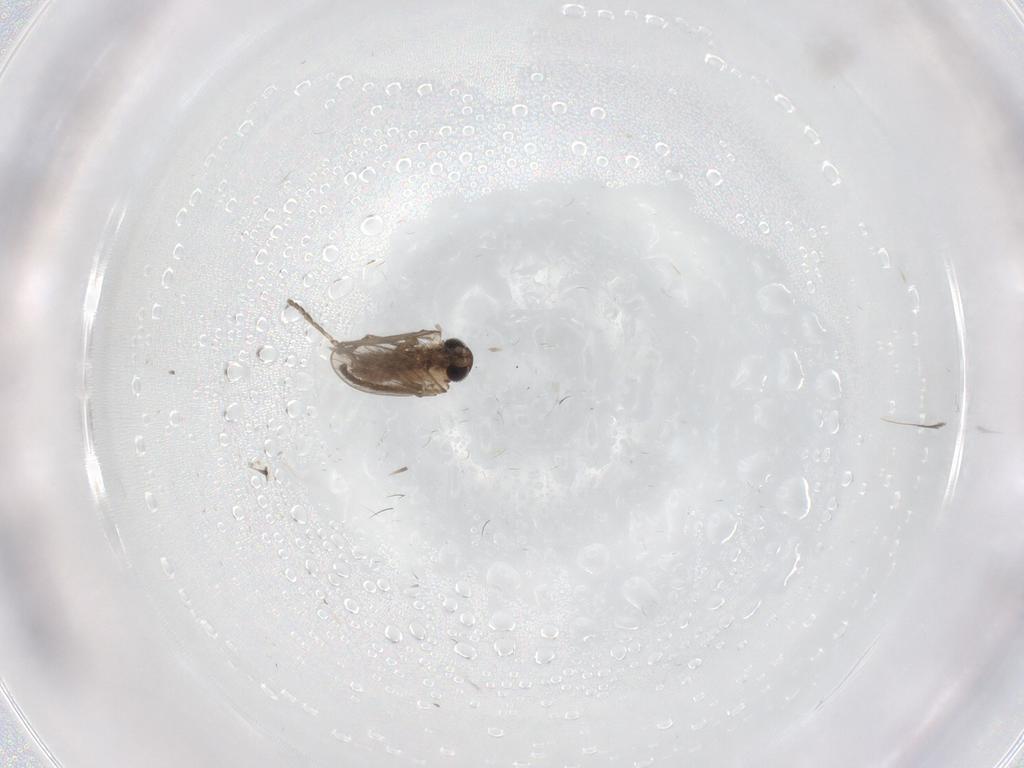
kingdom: Animalia
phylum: Arthropoda
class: Insecta
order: Diptera
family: Psychodidae
